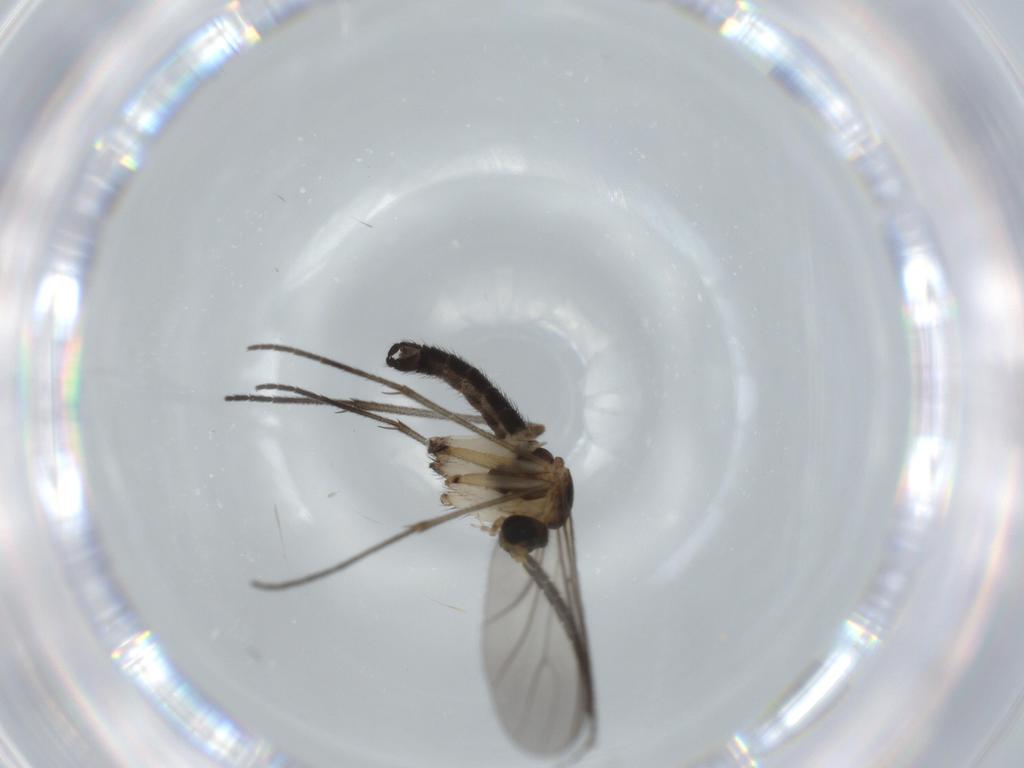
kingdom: Animalia
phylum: Arthropoda
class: Insecta
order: Diptera
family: Sciaridae
